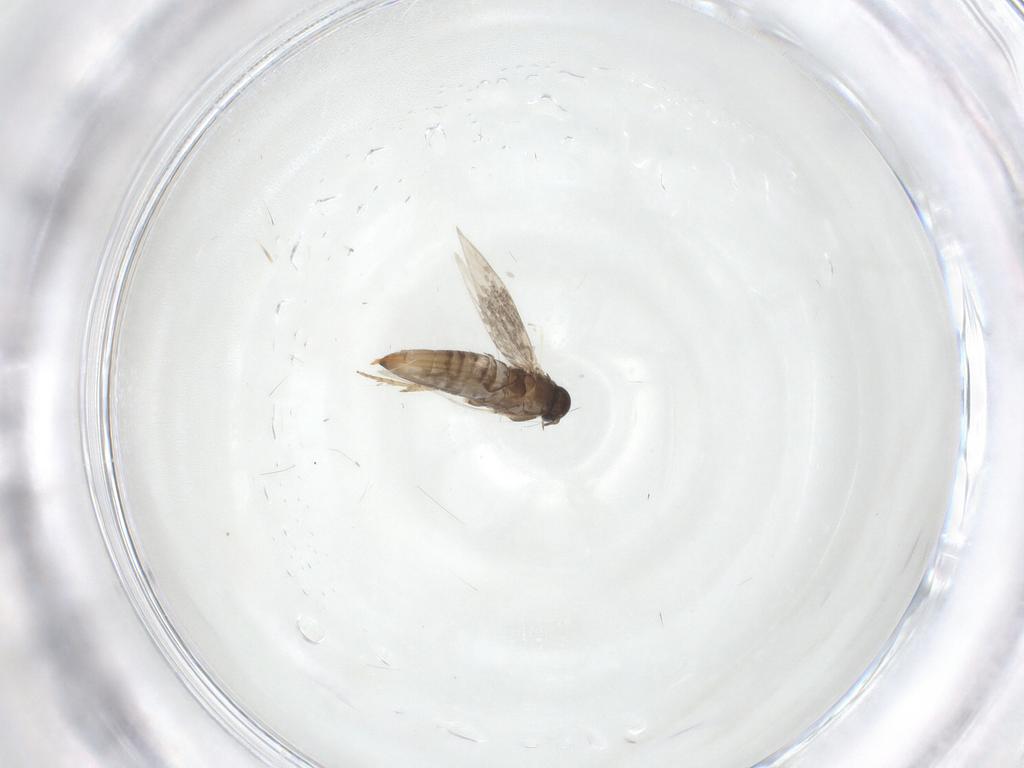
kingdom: Animalia
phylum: Arthropoda
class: Insecta
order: Lepidoptera
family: Heliozelidae
